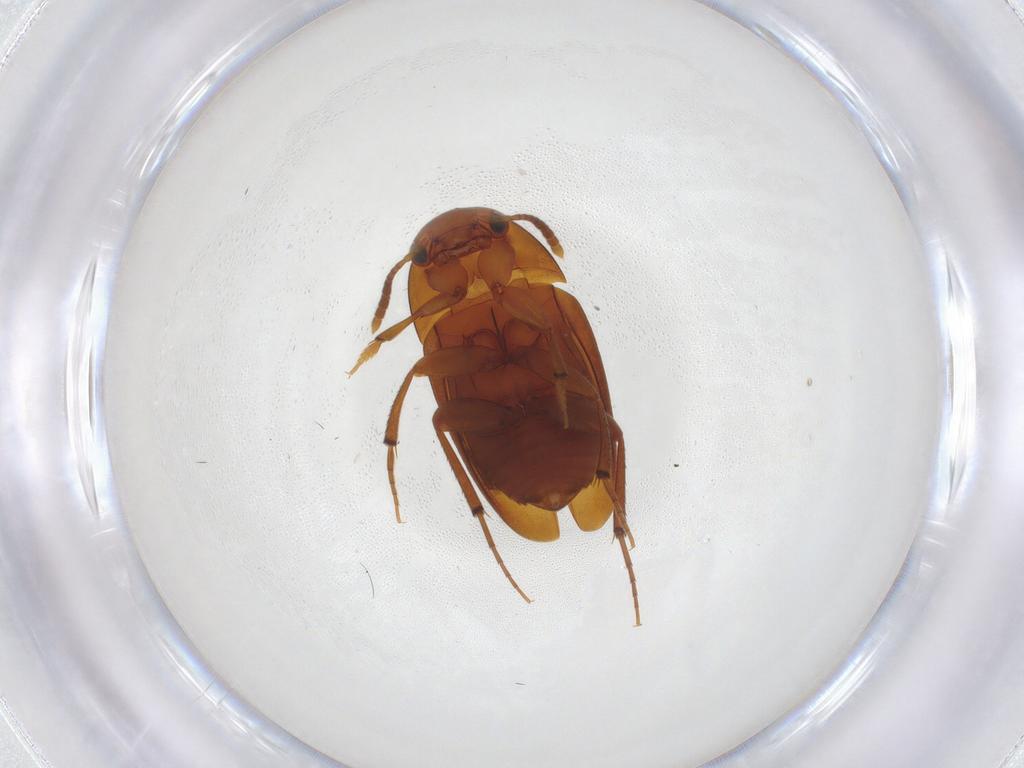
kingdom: Animalia
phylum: Arthropoda
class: Insecta
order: Coleoptera
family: Leiodidae
